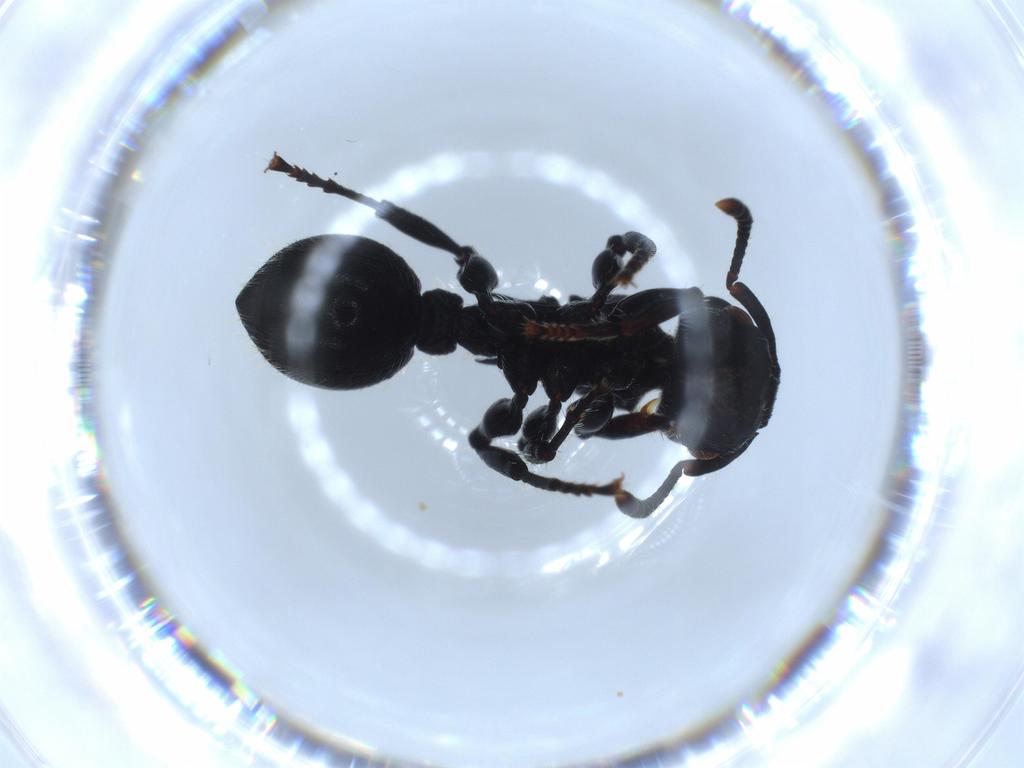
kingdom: Animalia
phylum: Arthropoda
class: Insecta
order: Hymenoptera
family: Formicidae
